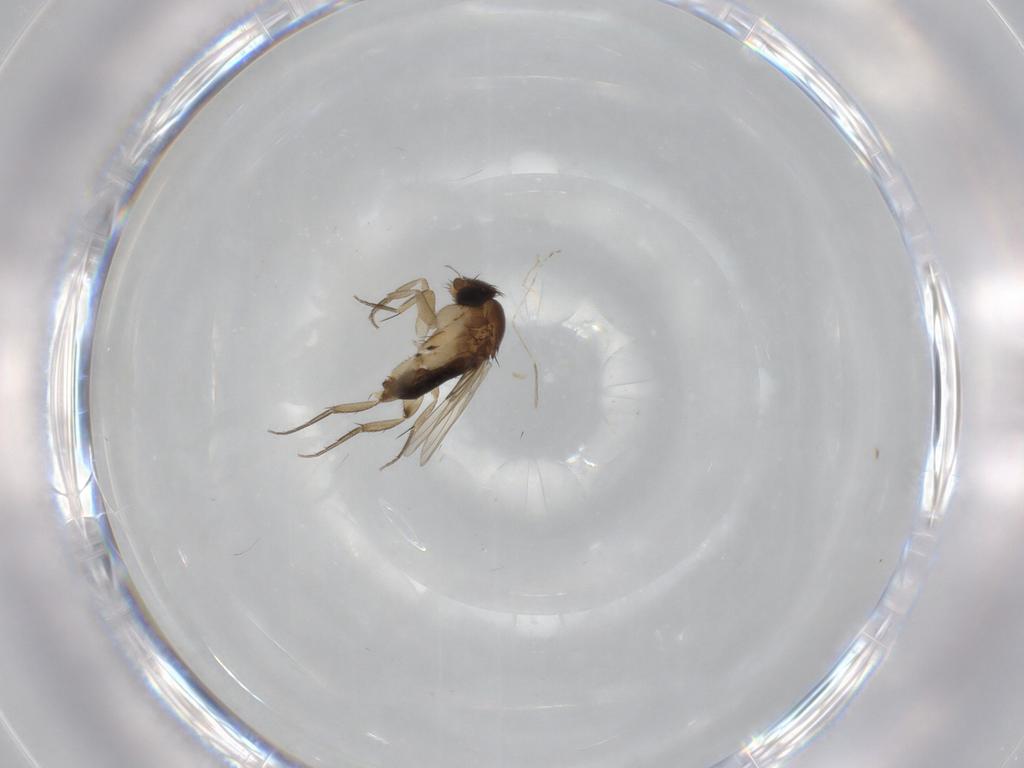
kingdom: Animalia
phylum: Arthropoda
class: Insecta
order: Diptera
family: Phoridae
